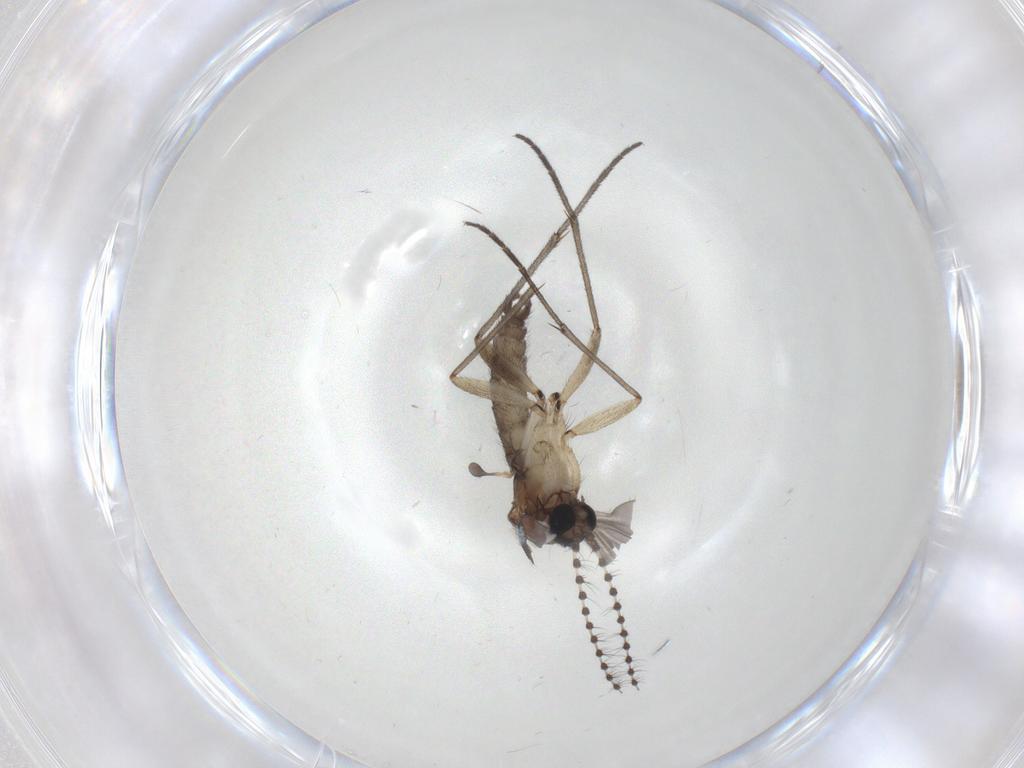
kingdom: Animalia
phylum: Arthropoda
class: Insecta
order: Diptera
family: Sciaridae
